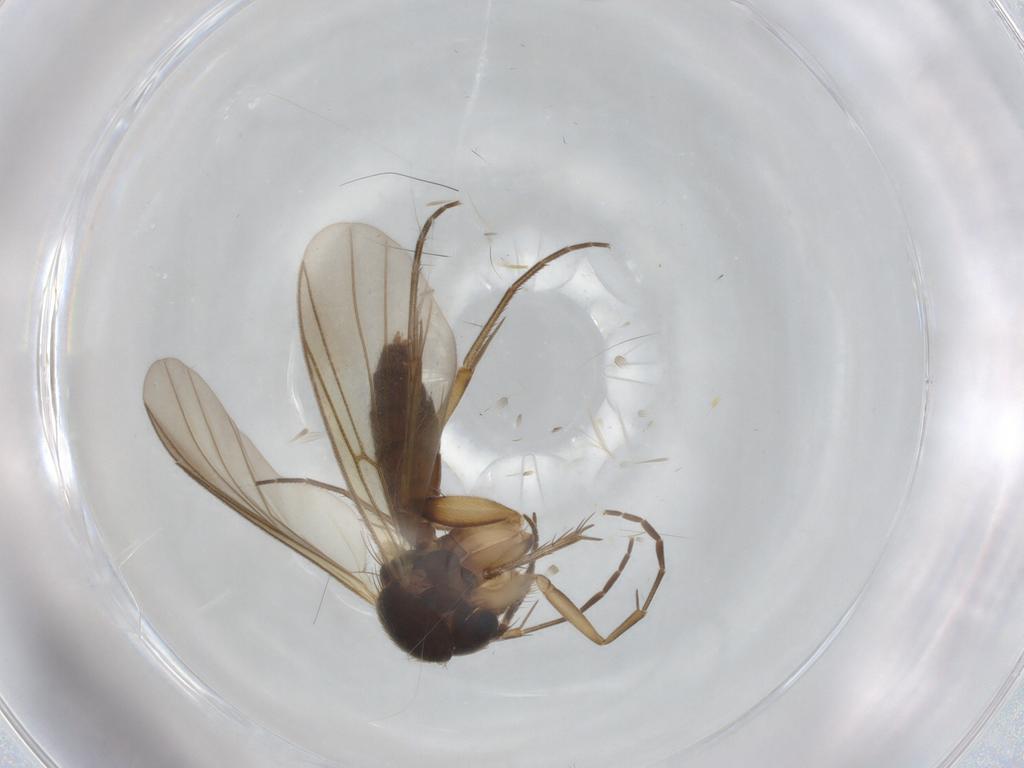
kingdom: Animalia
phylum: Arthropoda
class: Insecta
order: Diptera
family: Mycetophilidae
